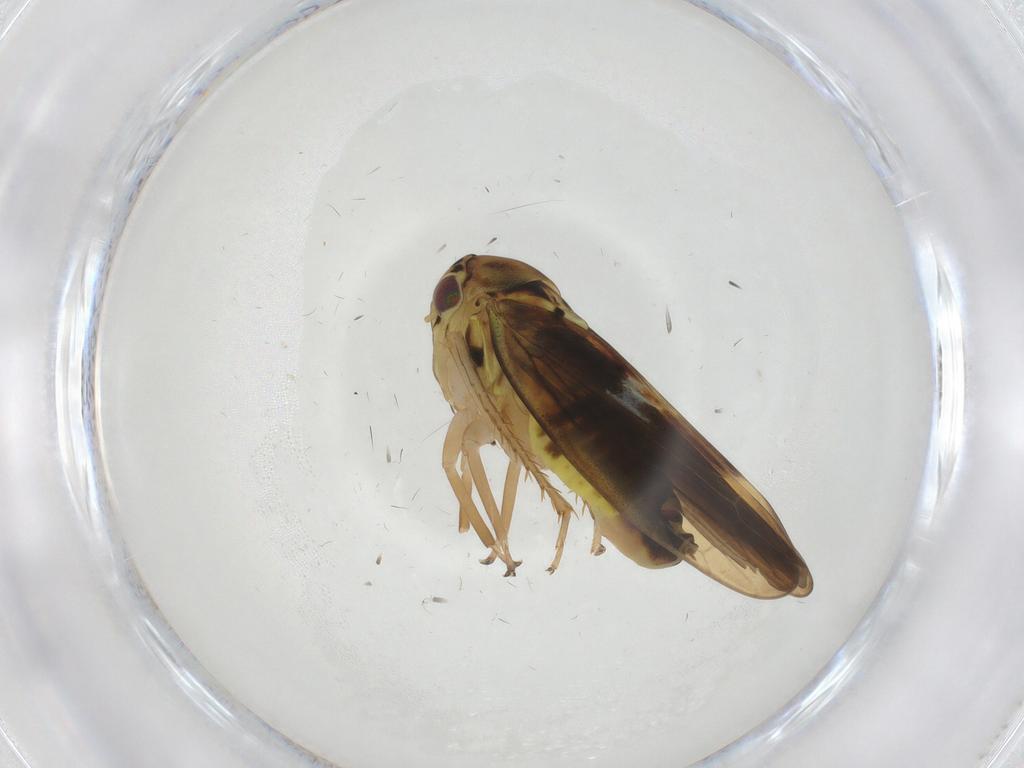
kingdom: Animalia
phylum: Arthropoda
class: Insecta
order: Hemiptera
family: Cicadellidae
